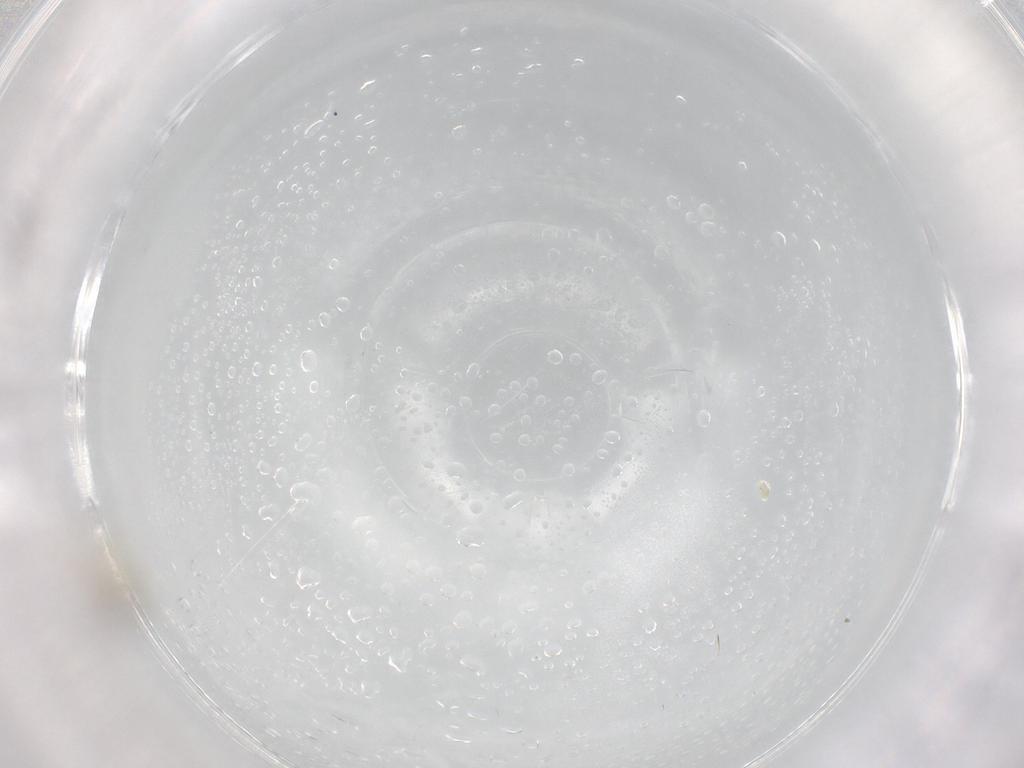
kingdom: Animalia
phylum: Arthropoda
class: Insecta
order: Diptera
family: Cecidomyiidae
